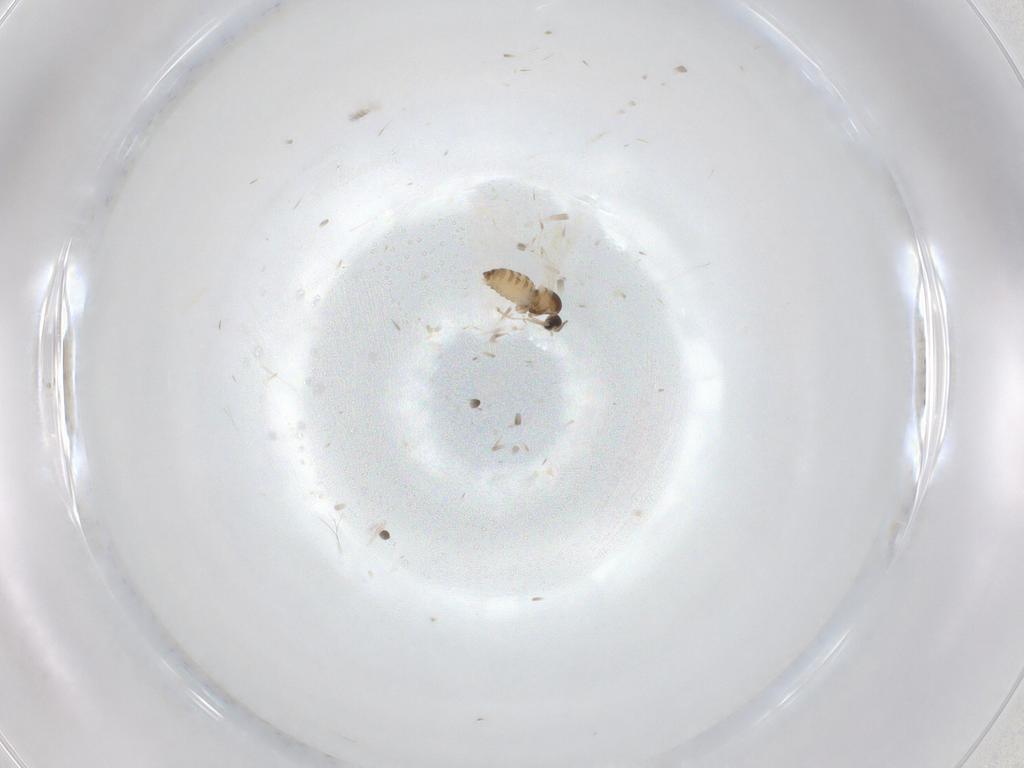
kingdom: Animalia
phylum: Arthropoda
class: Insecta
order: Diptera
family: Cecidomyiidae
